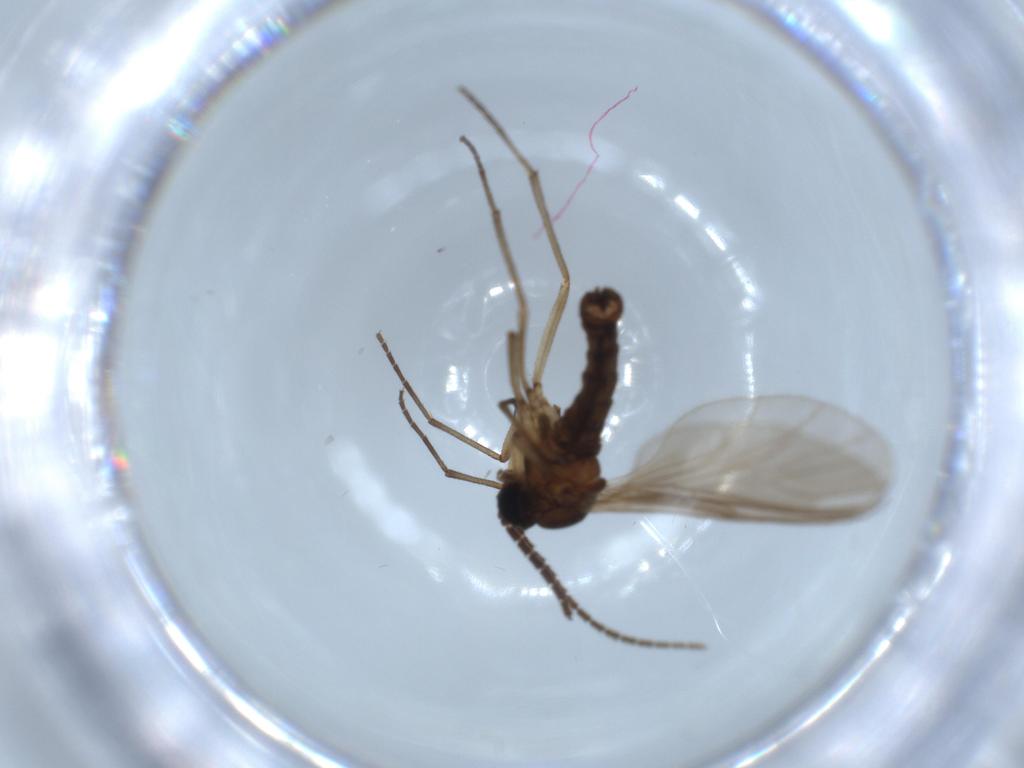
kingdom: Animalia
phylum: Arthropoda
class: Insecta
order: Diptera
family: Sciaridae
